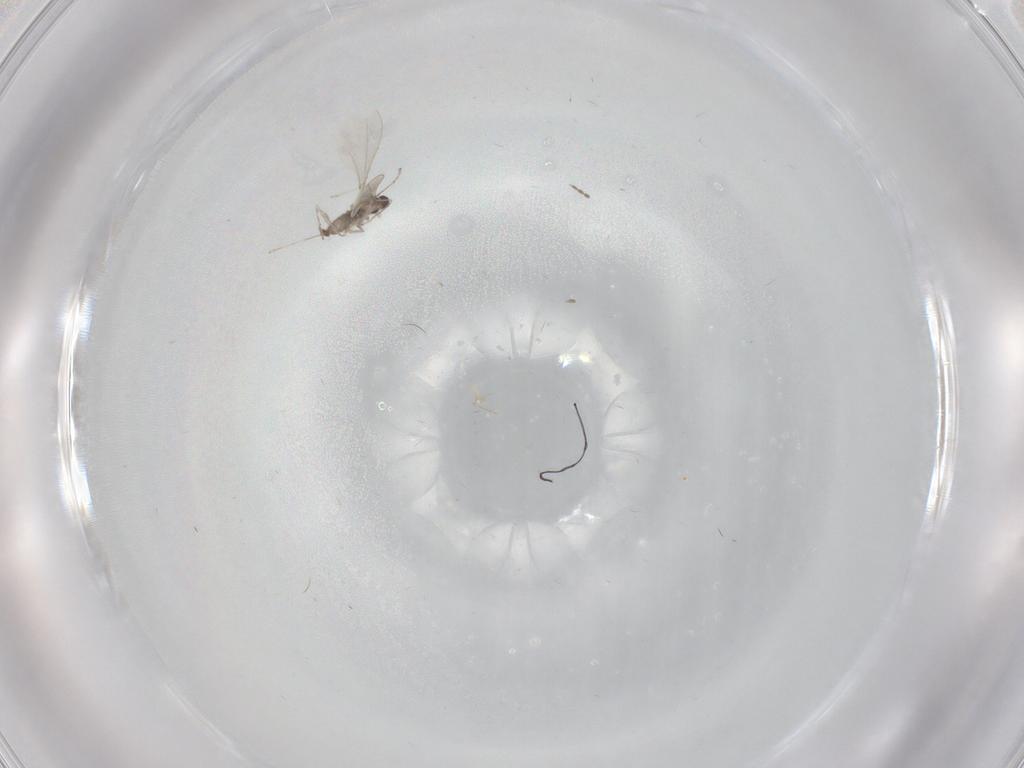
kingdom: Animalia
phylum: Arthropoda
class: Insecta
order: Diptera
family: Cecidomyiidae
